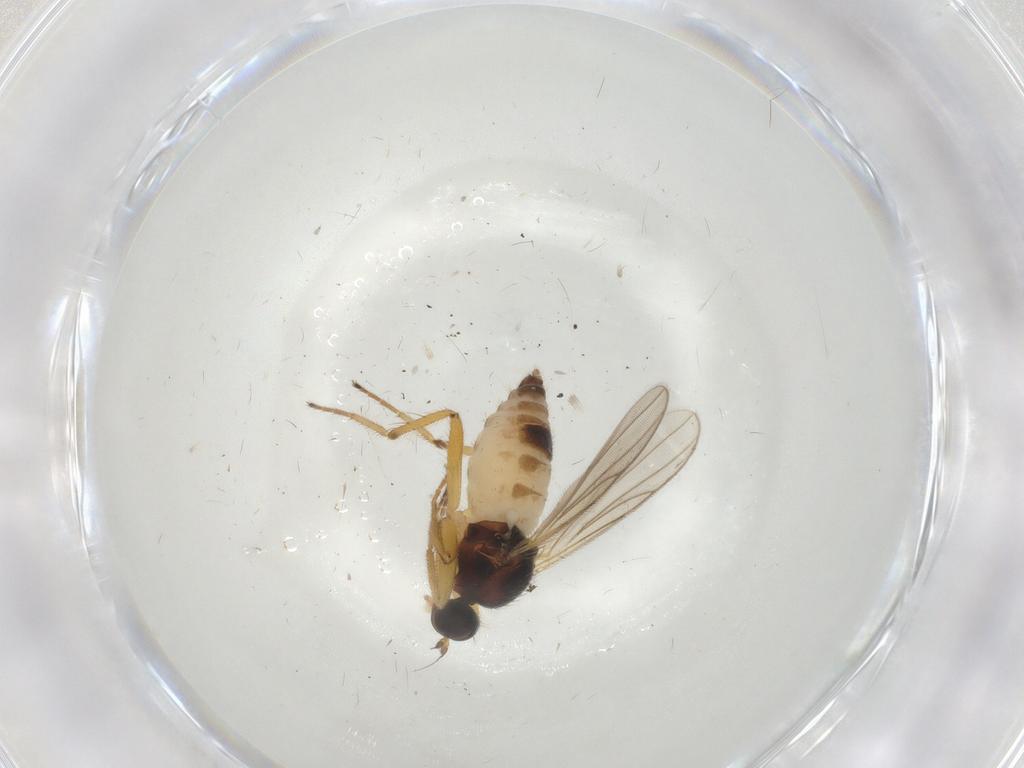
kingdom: Animalia
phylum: Arthropoda
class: Insecta
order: Diptera
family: Hybotidae
